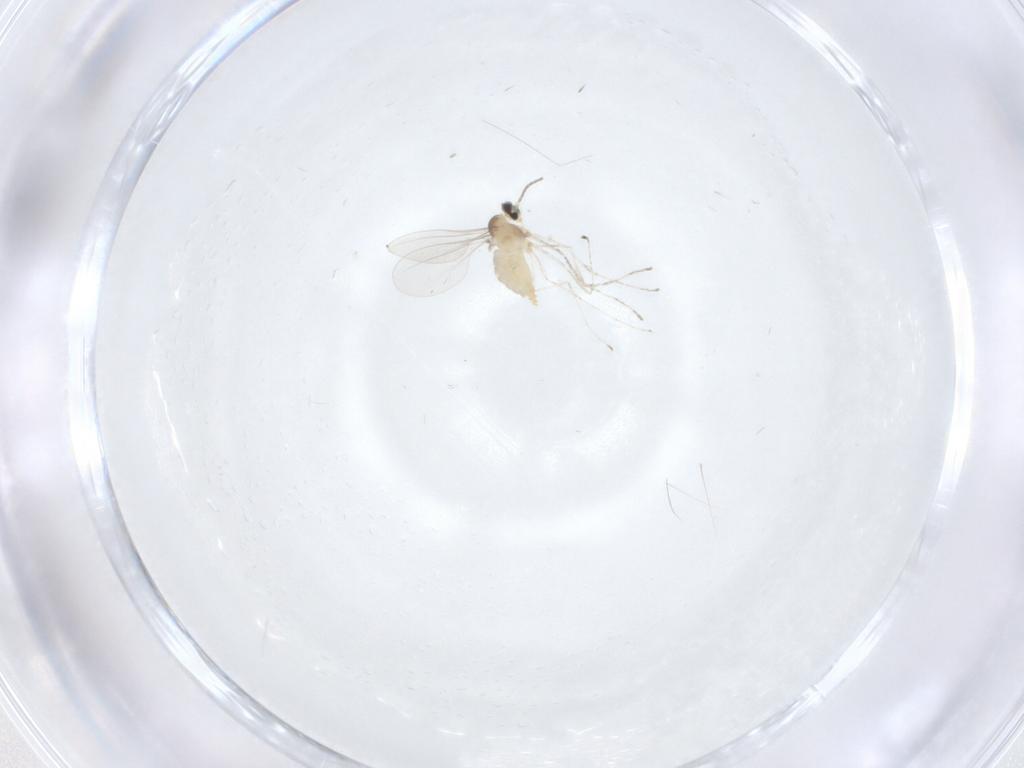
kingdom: Animalia
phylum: Arthropoda
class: Insecta
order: Diptera
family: Cecidomyiidae
